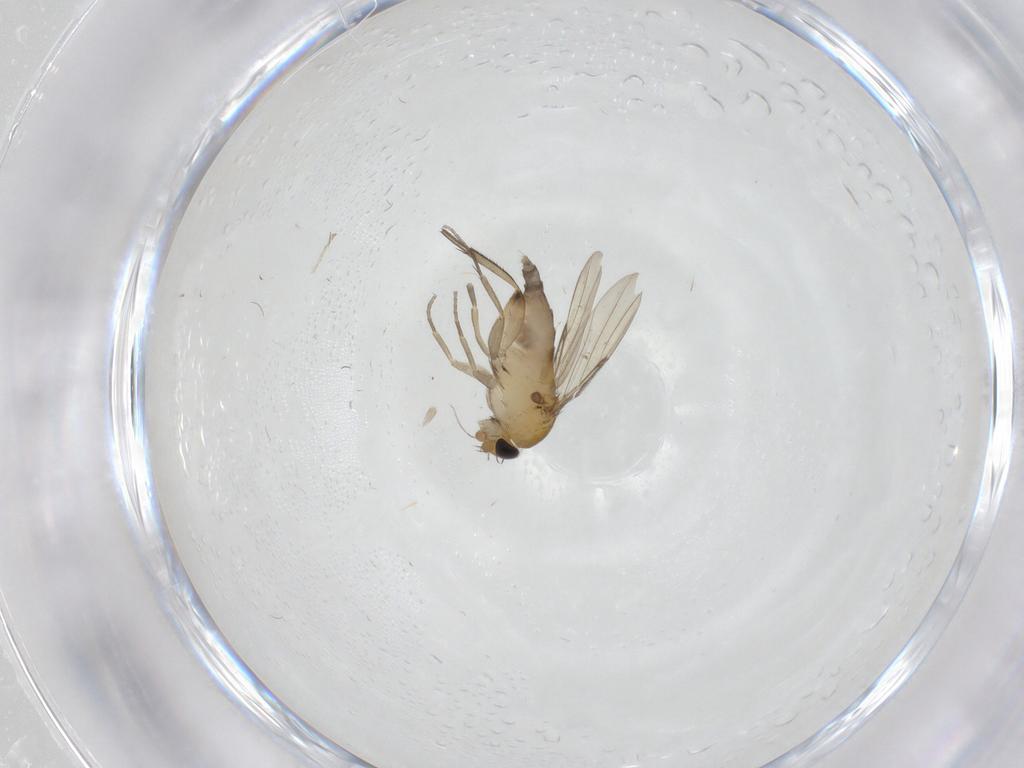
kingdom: Animalia
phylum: Arthropoda
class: Insecta
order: Diptera
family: Phoridae
